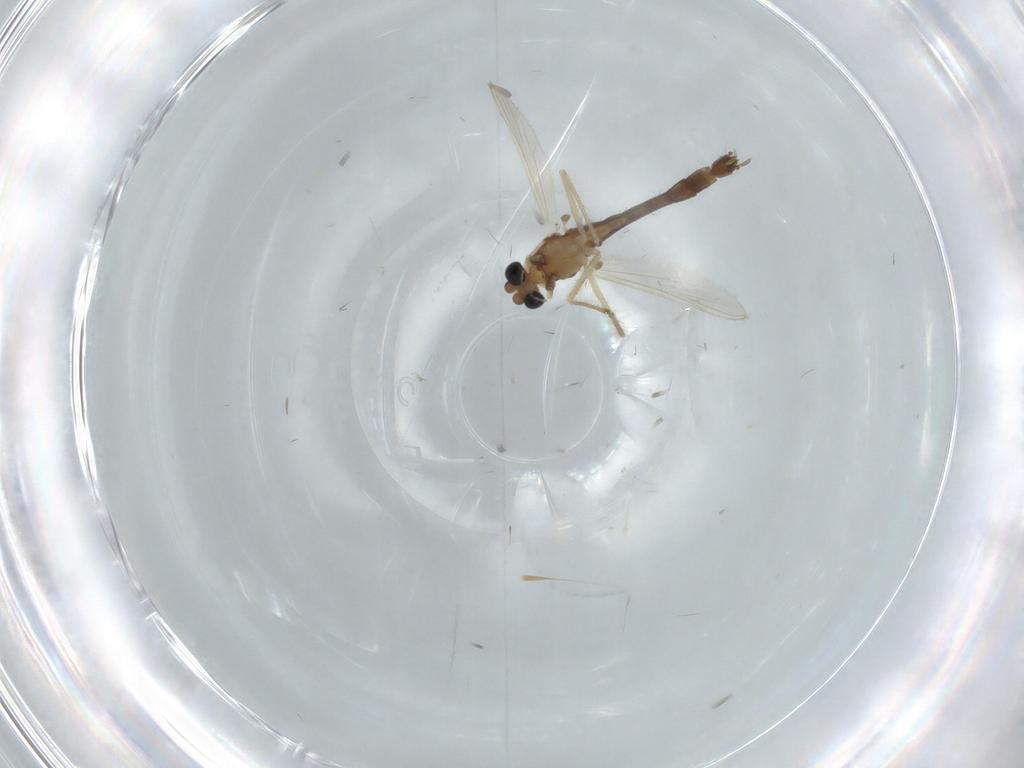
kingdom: Animalia
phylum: Arthropoda
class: Insecta
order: Diptera
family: Chironomidae
